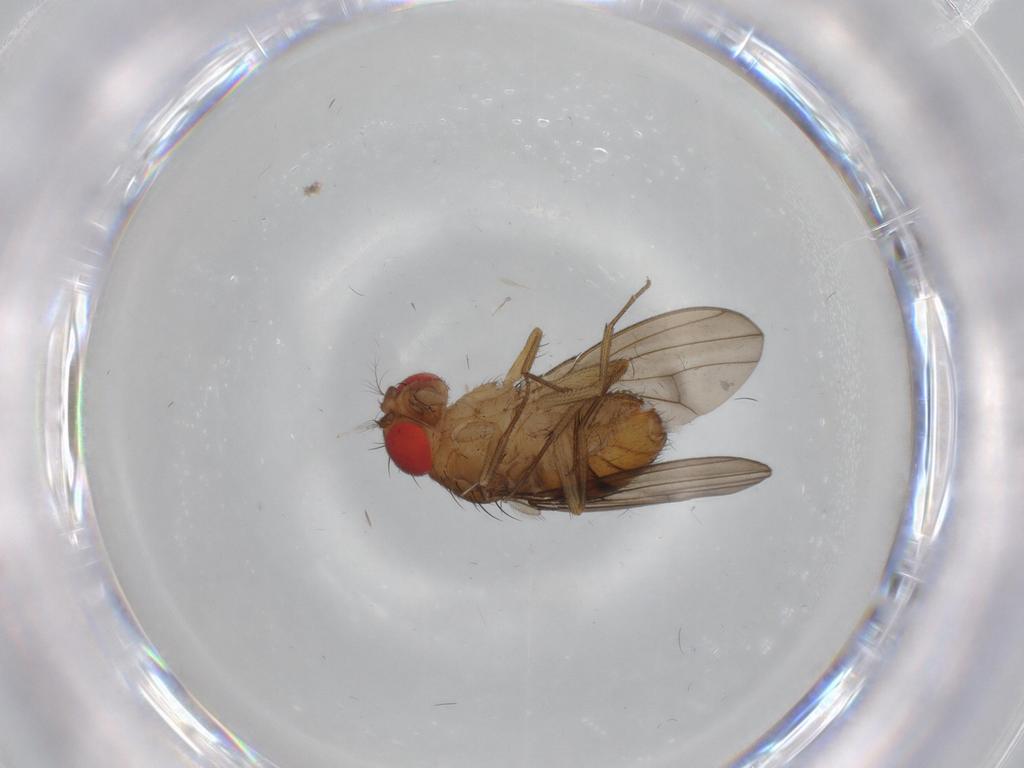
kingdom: Animalia
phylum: Arthropoda
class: Insecta
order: Diptera
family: Drosophilidae
